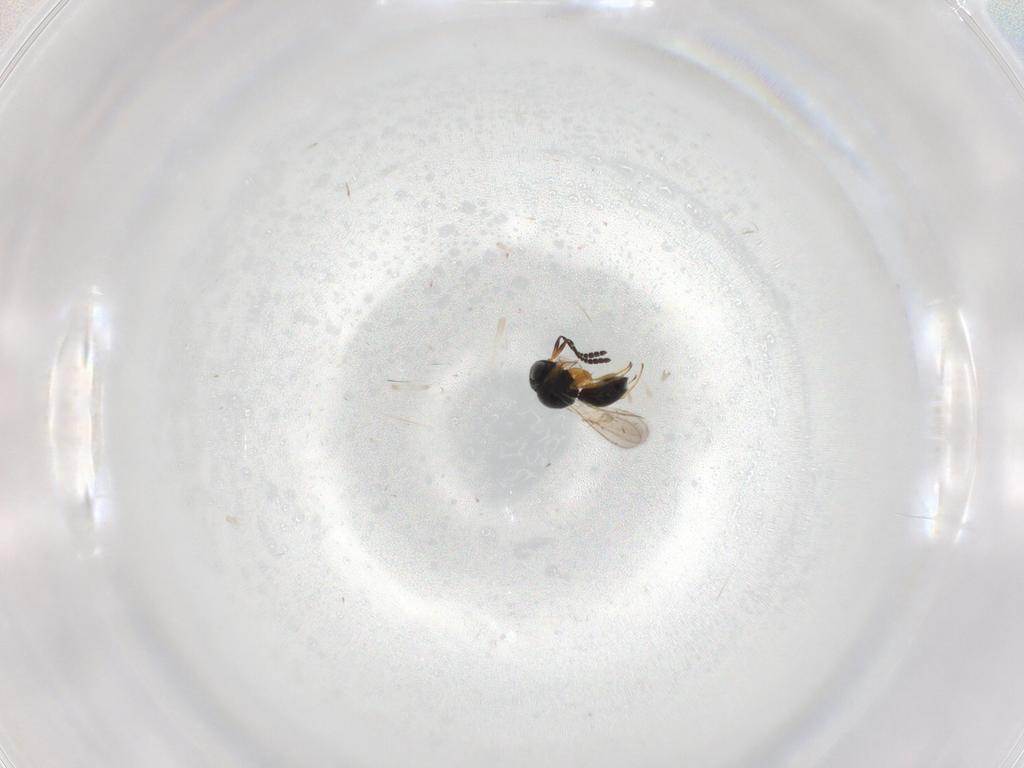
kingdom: Animalia
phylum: Arthropoda
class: Insecta
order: Hymenoptera
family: Scelionidae
